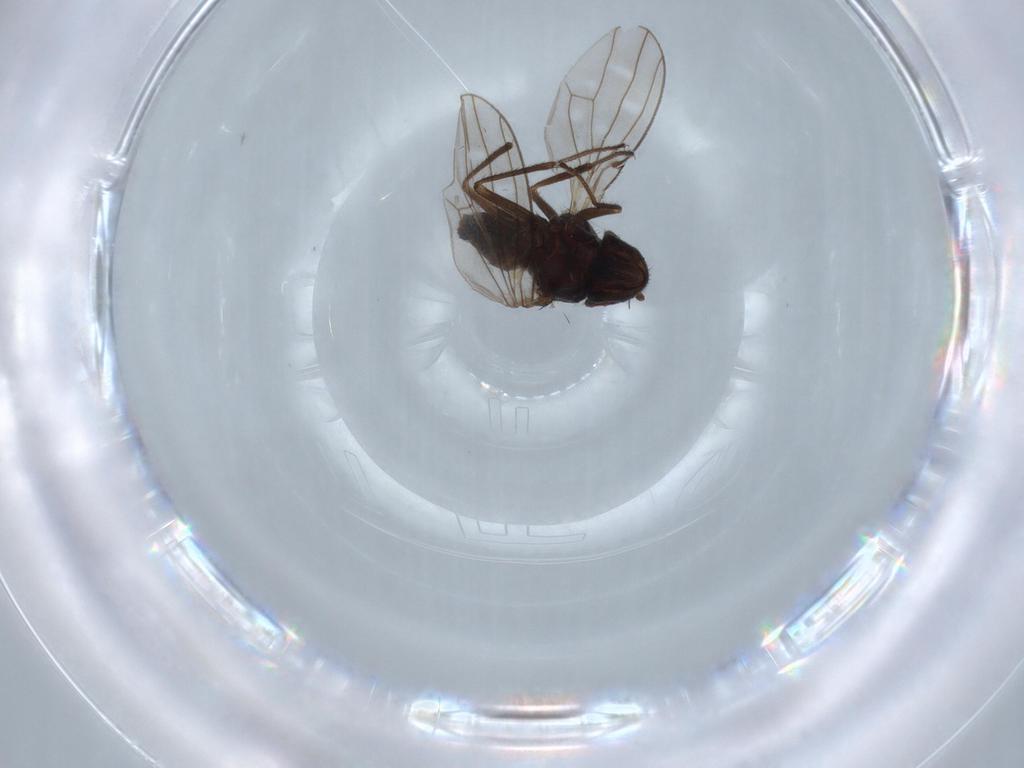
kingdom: Animalia
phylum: Arthropoda
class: Insecta
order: Diptera
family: Ephydridae
